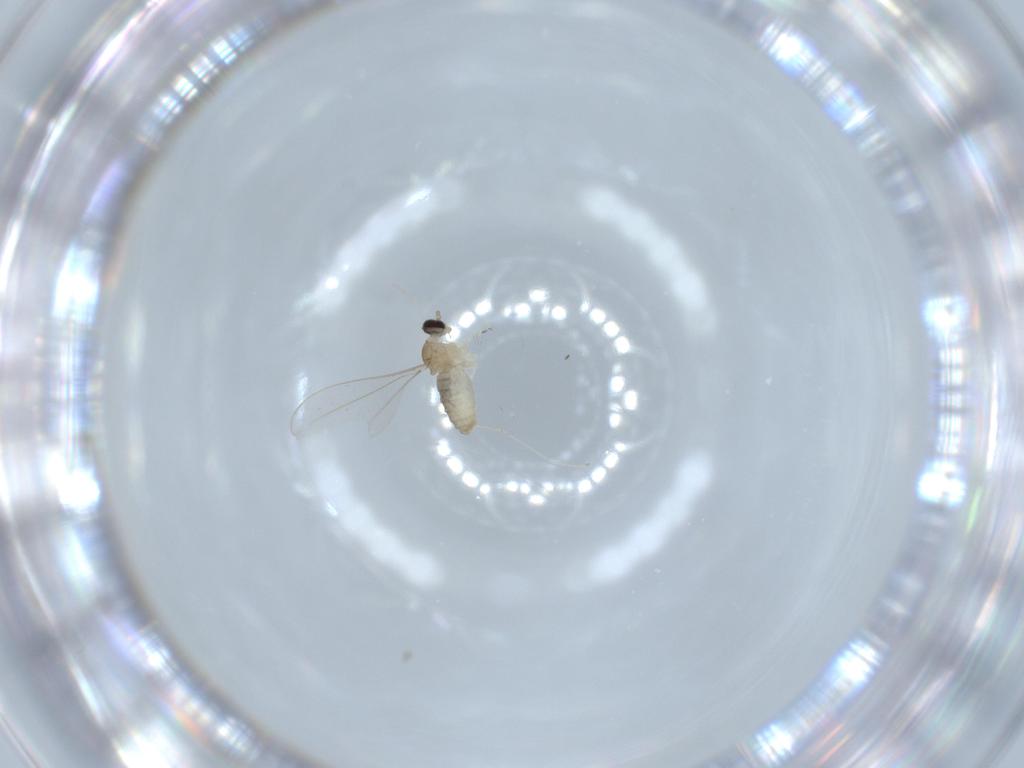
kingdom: Animalia
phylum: Arthropoda
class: Insecta
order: Diptera
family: Cecidomyiidae
